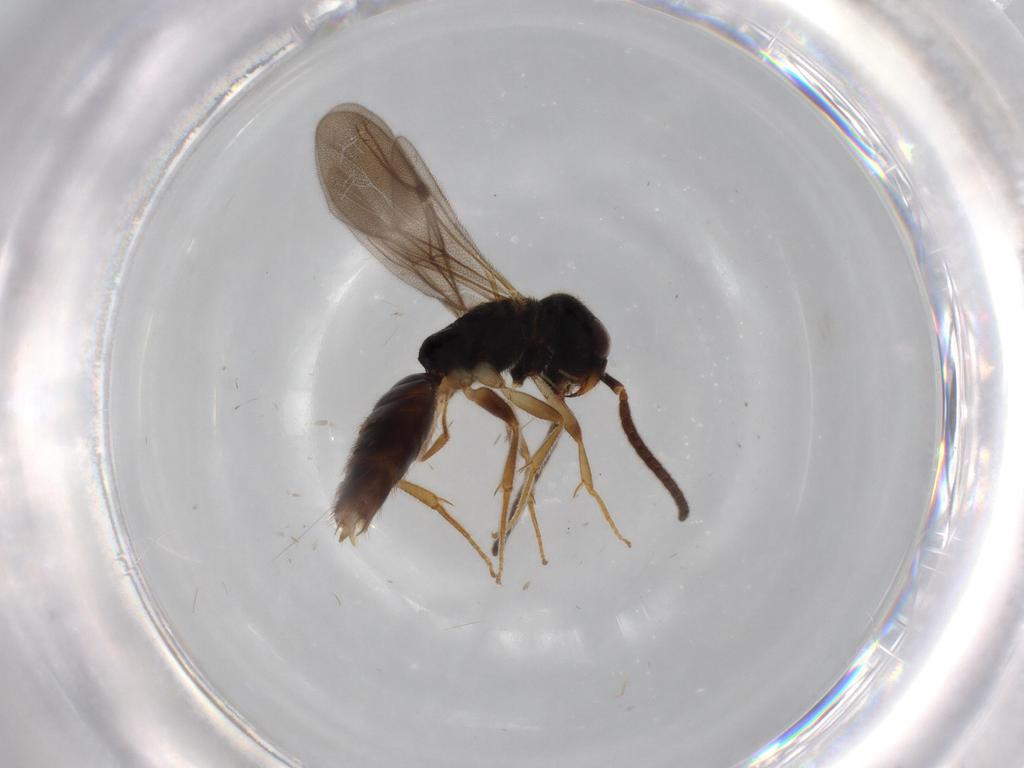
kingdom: Animalia
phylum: Arthropoda
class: Insecta
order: Hymenoptera
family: Bethylidae
